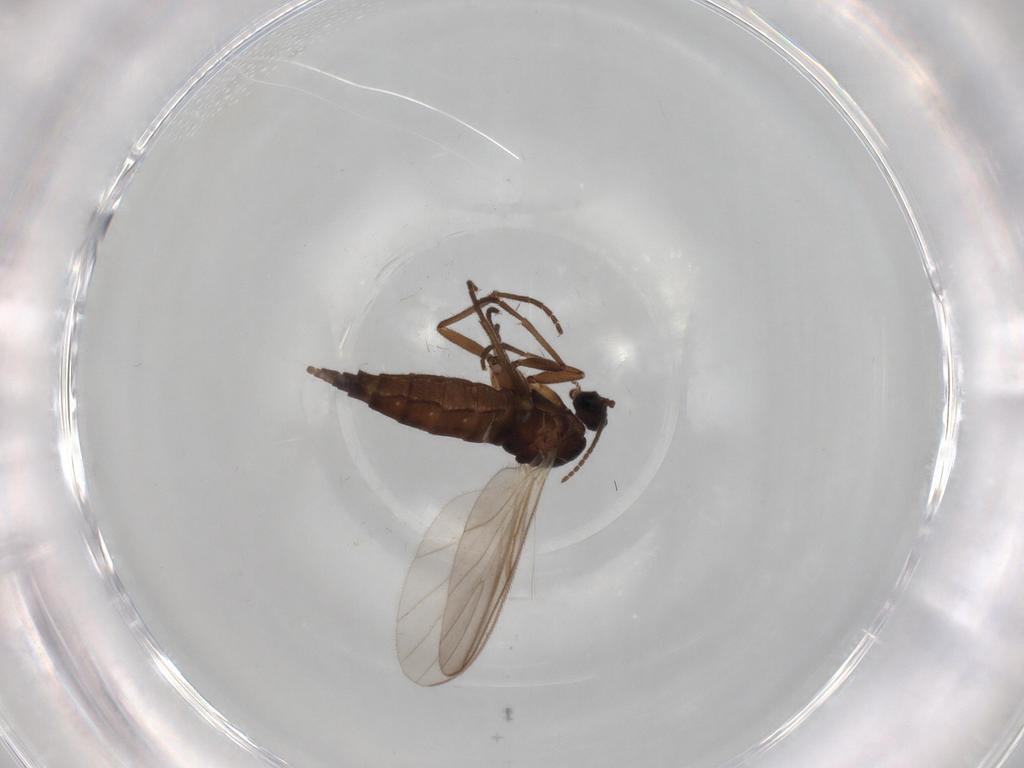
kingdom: Animalia
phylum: Arthropoda
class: Insecta
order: Diptera
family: Sciaridae
